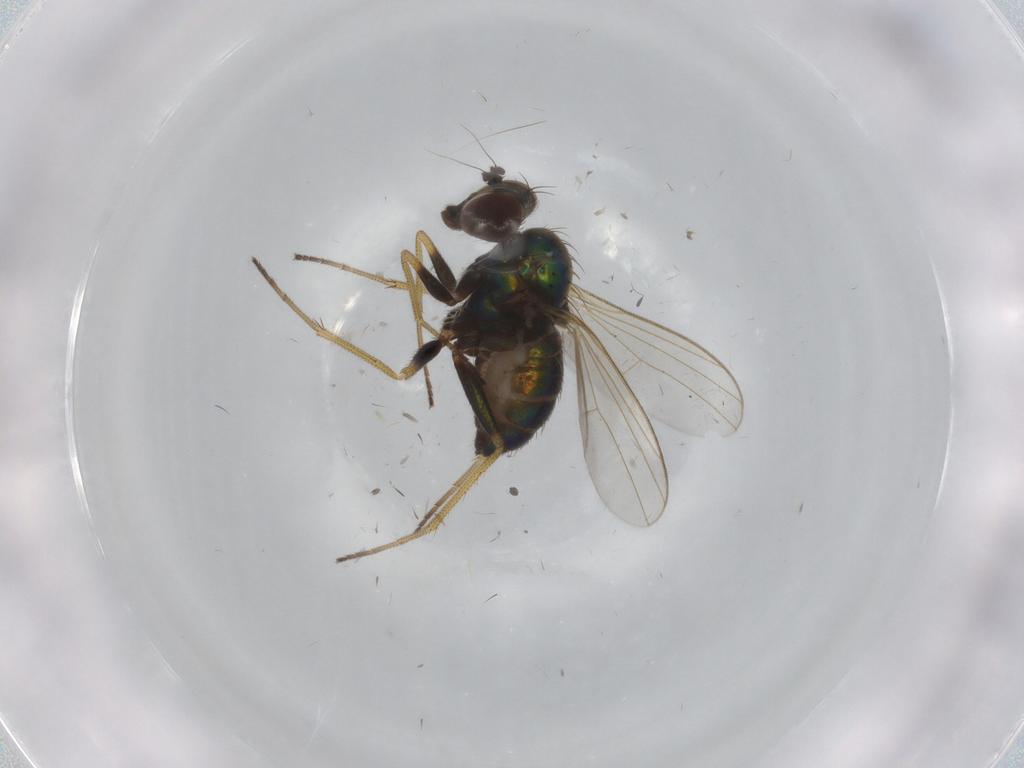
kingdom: Animalia
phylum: Arthropoda
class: Insecta
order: Diptera
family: Dolichopodidae
